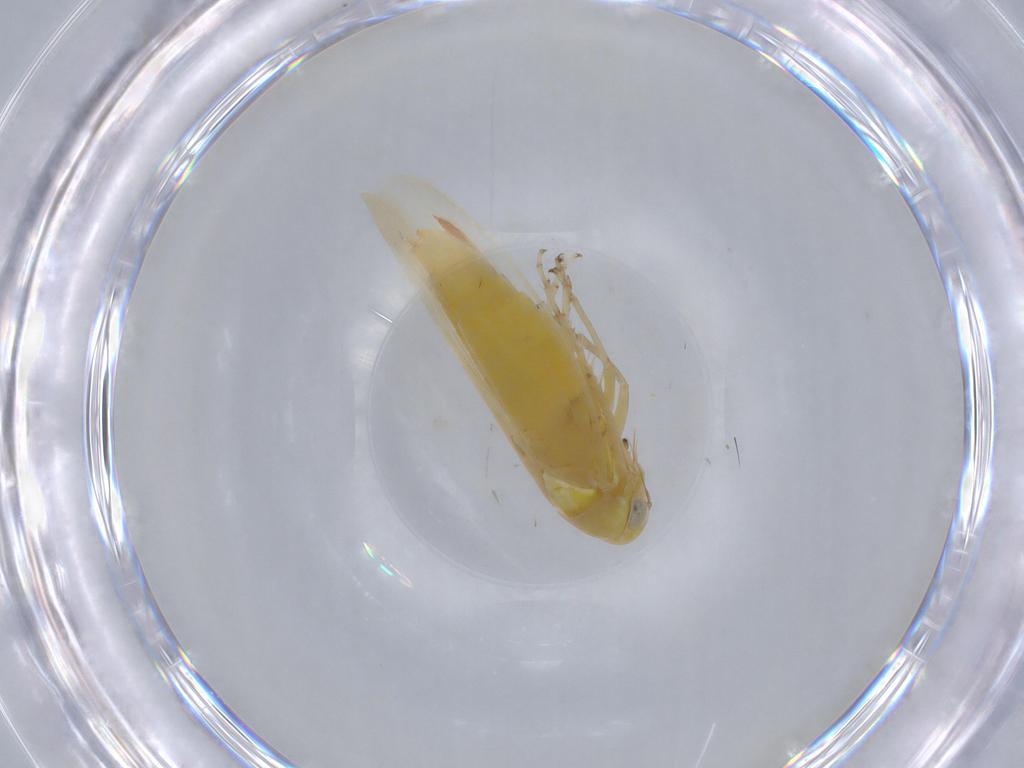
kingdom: Animalia
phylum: Arthropoda
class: Insecta
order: Hemiptera
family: Cicadellidae
